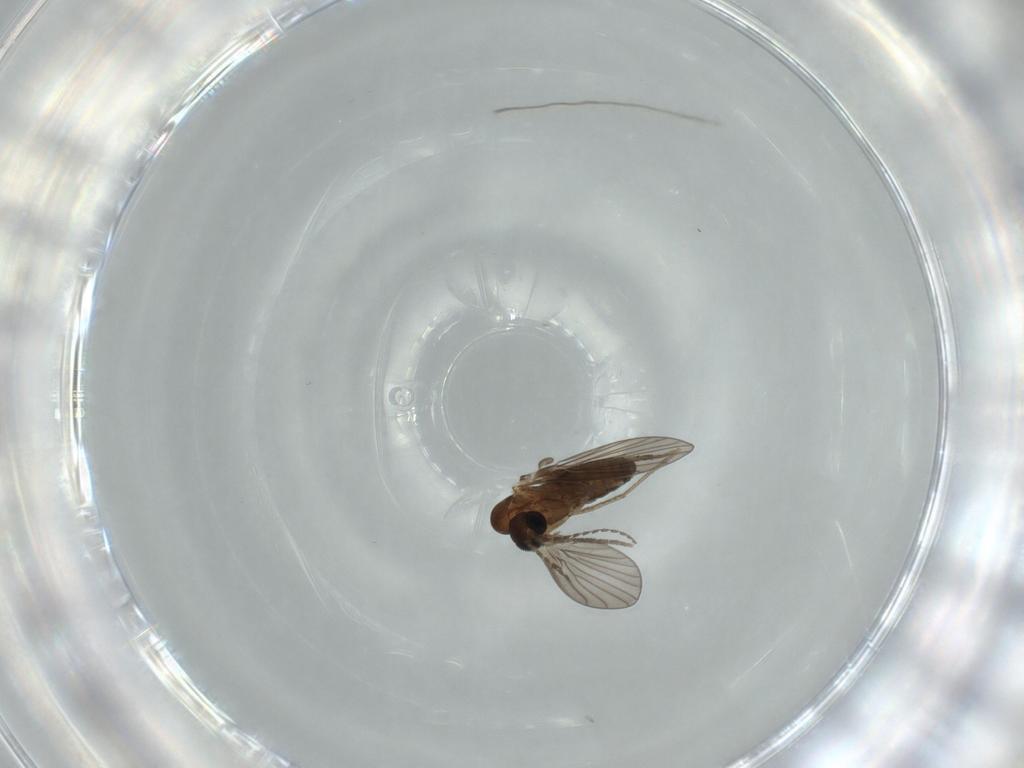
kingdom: Animalia
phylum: Arthropoda
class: Insecta
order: Diptera
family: Psychodidae
